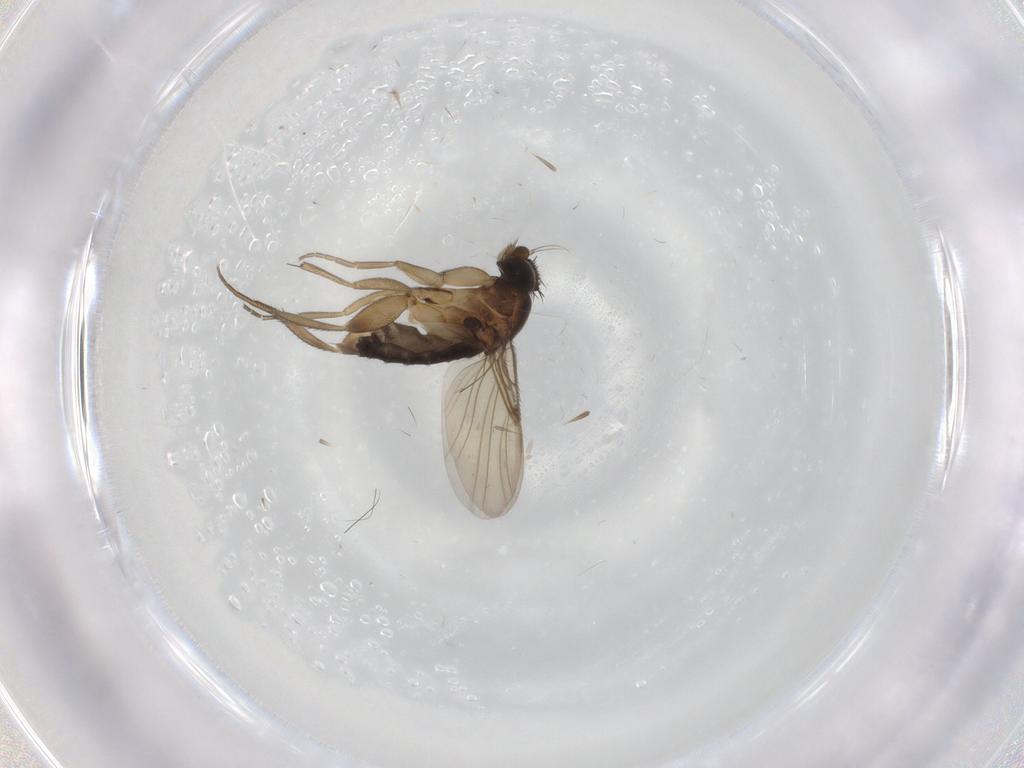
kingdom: Animalia
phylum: Arthropoda
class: Insecta
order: Diptera
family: Phoridae
